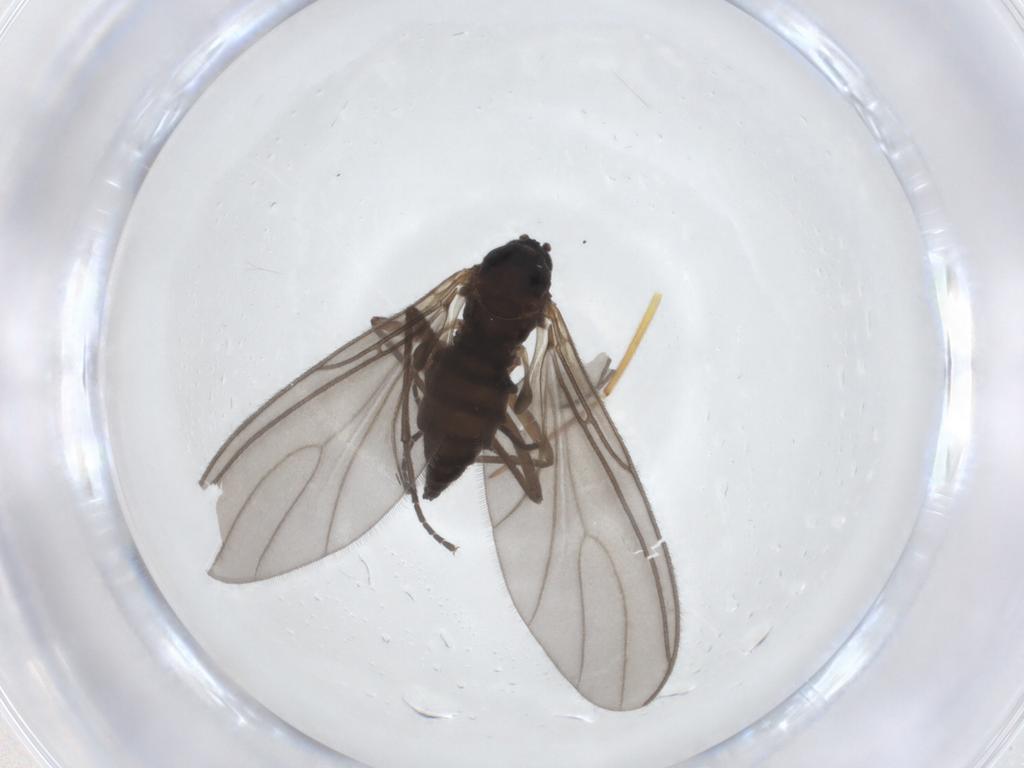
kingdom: Animalia
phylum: Arthropoda
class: Insecta
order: Diptera
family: Sciaridae
